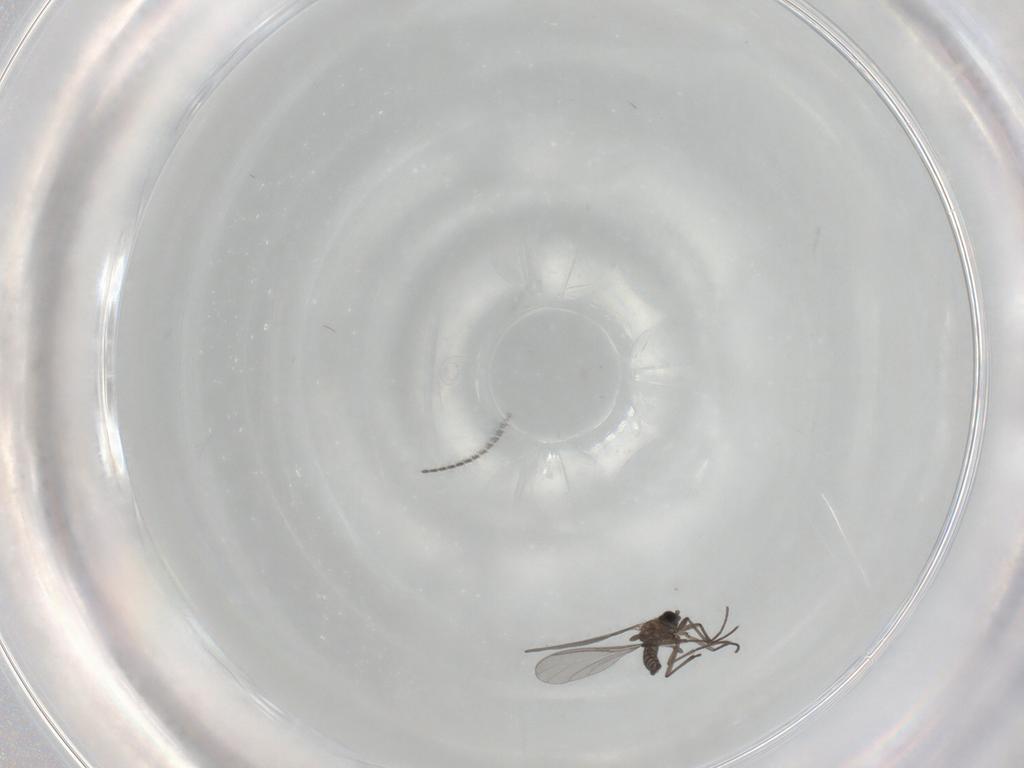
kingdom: Animalia
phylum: Arthropoda
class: Insecta
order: Diptera
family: Sciaridae
